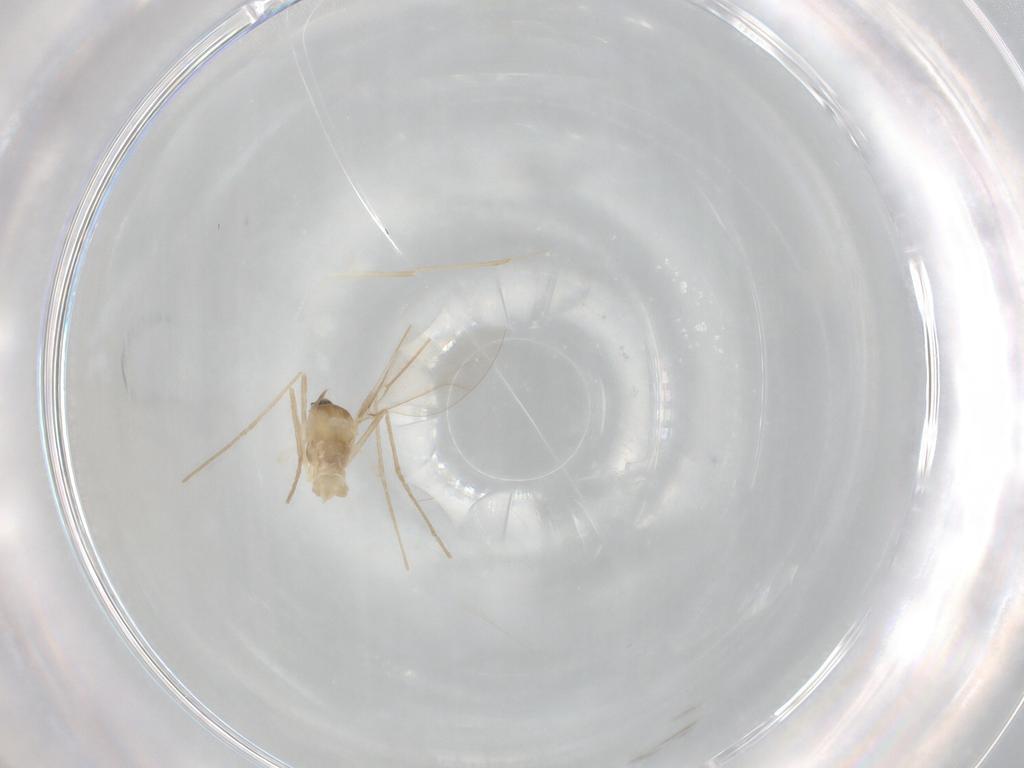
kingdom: Animalia
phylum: Arthropoda
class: Insecta
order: Diptera
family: Cecidomyiidae
